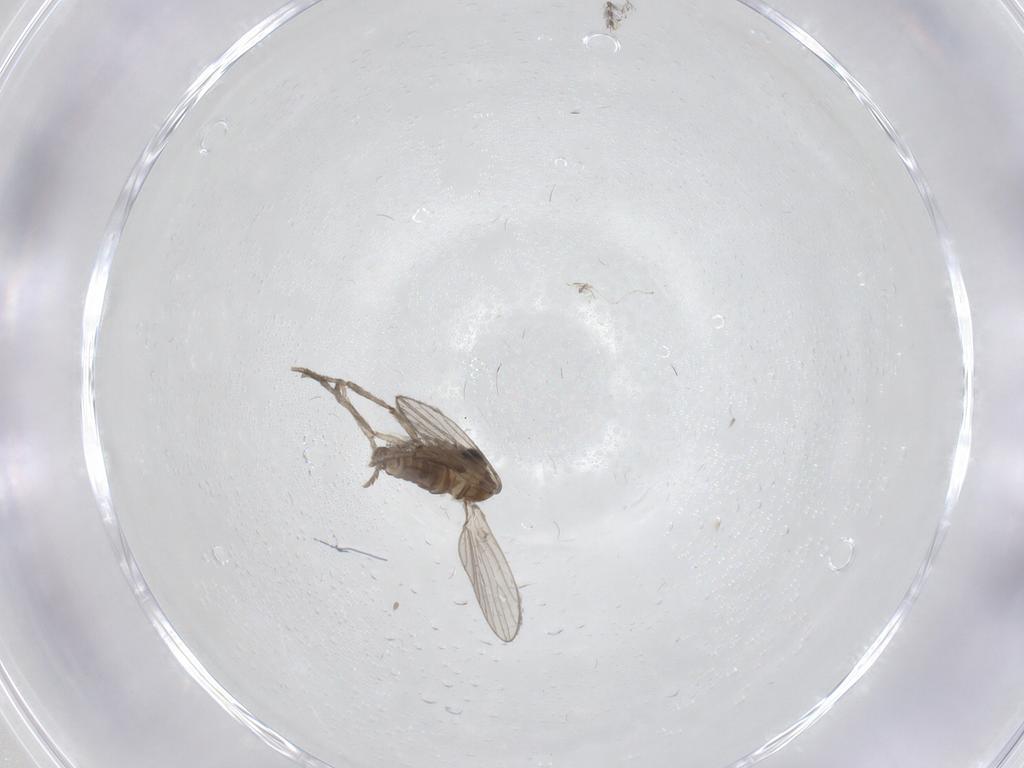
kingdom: Animalia
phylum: Arthropoda
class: Insecta
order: Diptera
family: Psychodidae
